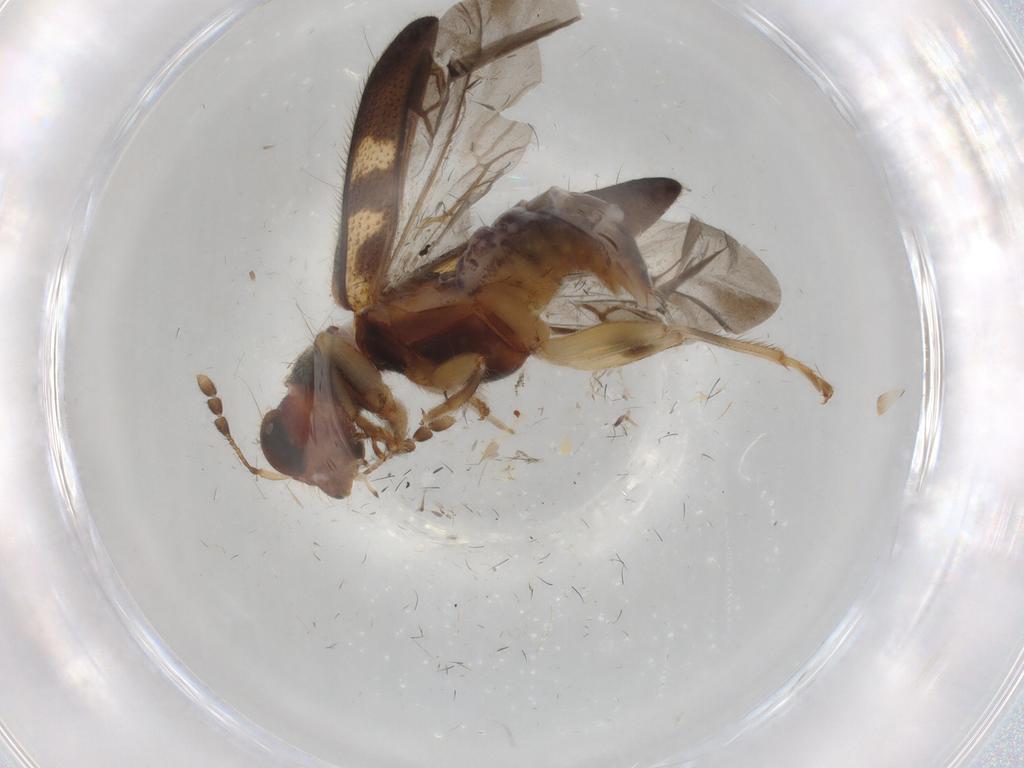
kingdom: Animalia
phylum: Arthropoda
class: Insecta
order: Coleoptera
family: Cleridae
